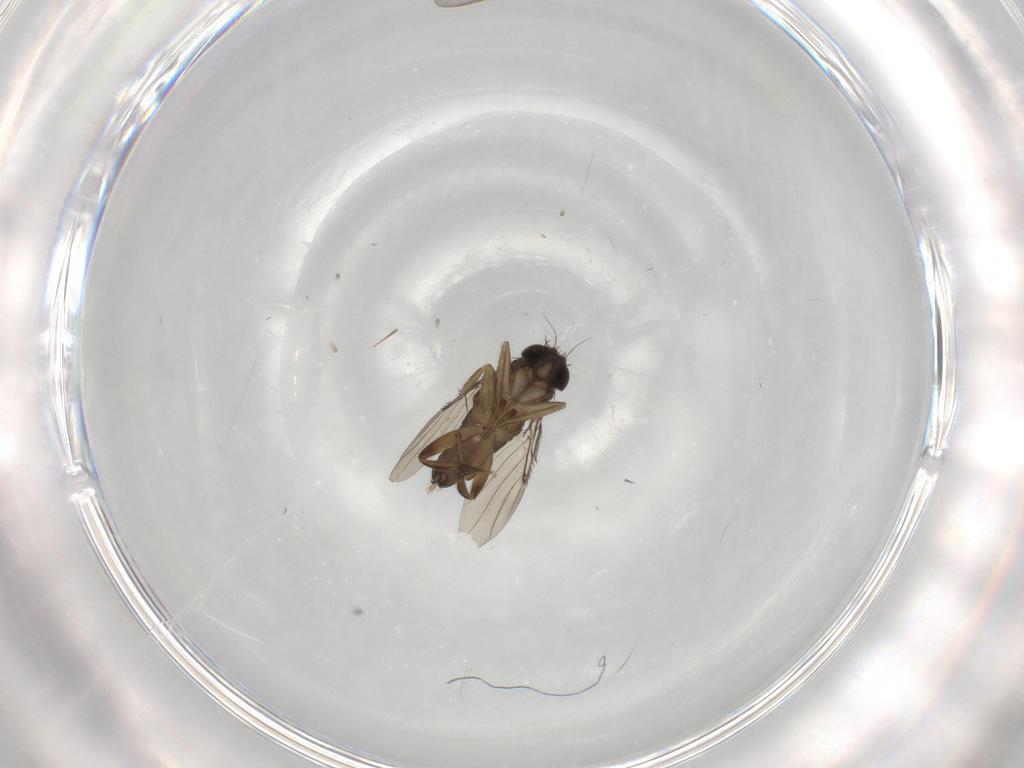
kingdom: Animalia
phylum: Arthropoda
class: Insecta
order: Diptera
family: Phoridae
